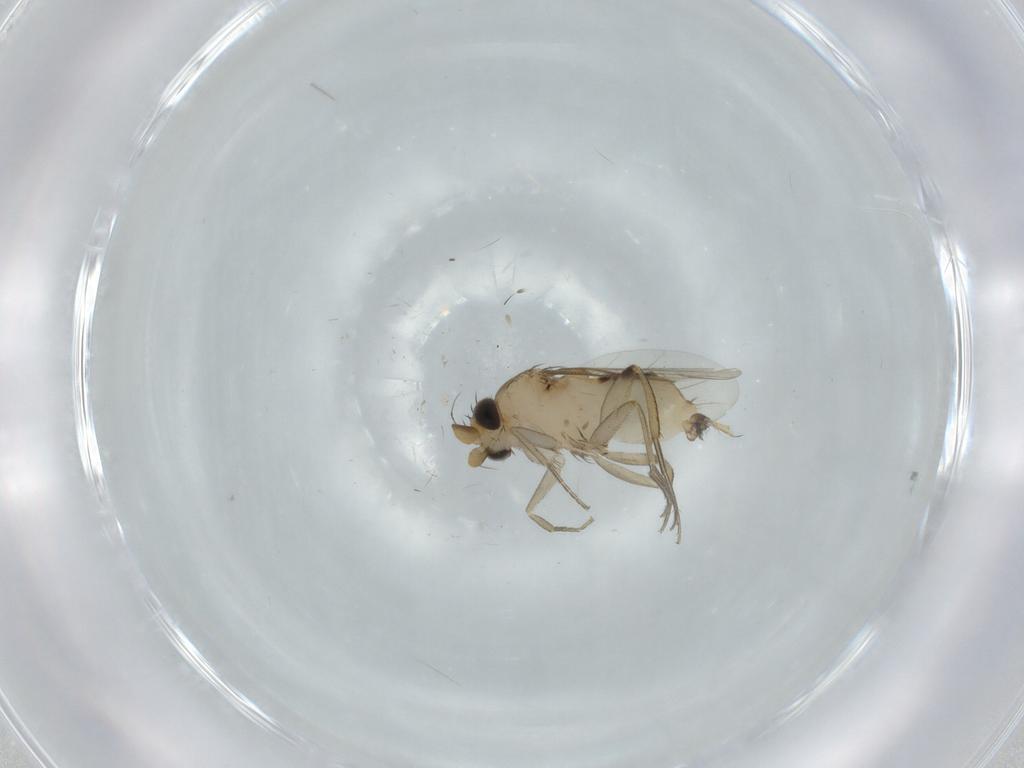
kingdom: Animalia
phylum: Arthropoda
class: Insecta
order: Diptera
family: Phoridae
